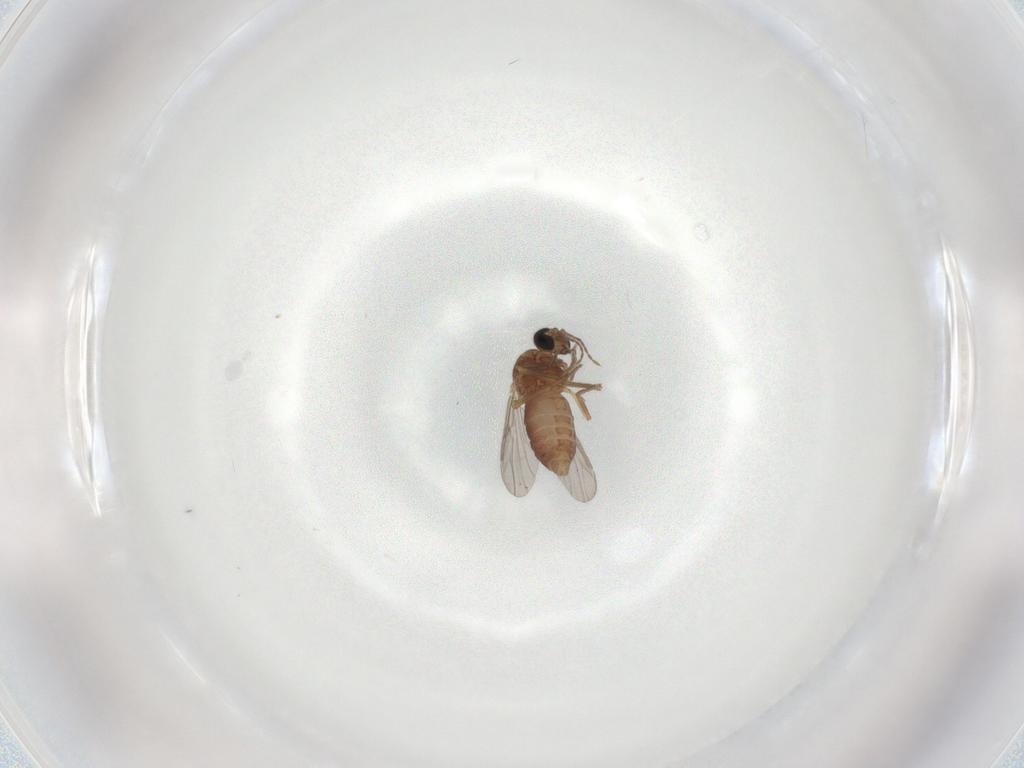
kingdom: Animalia
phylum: Arthropoda
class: Insecta
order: Diptera
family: Ceratopogonidae
